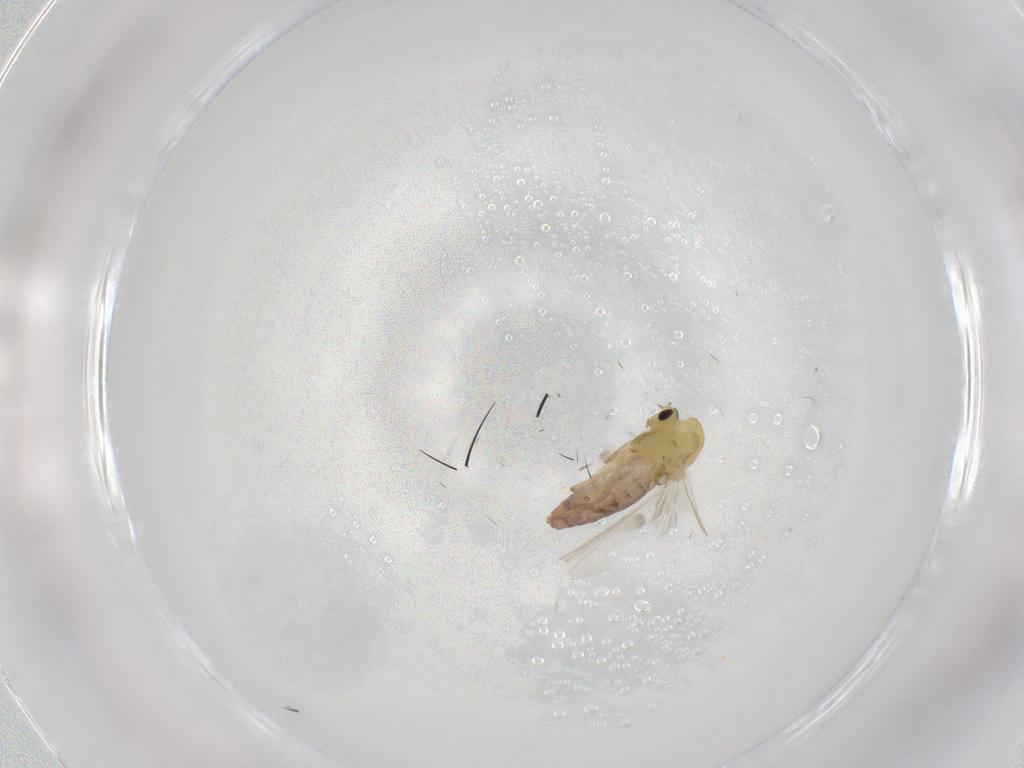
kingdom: Animalia
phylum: Arthropoda
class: Insecta
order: Diptera
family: Chironomidae
